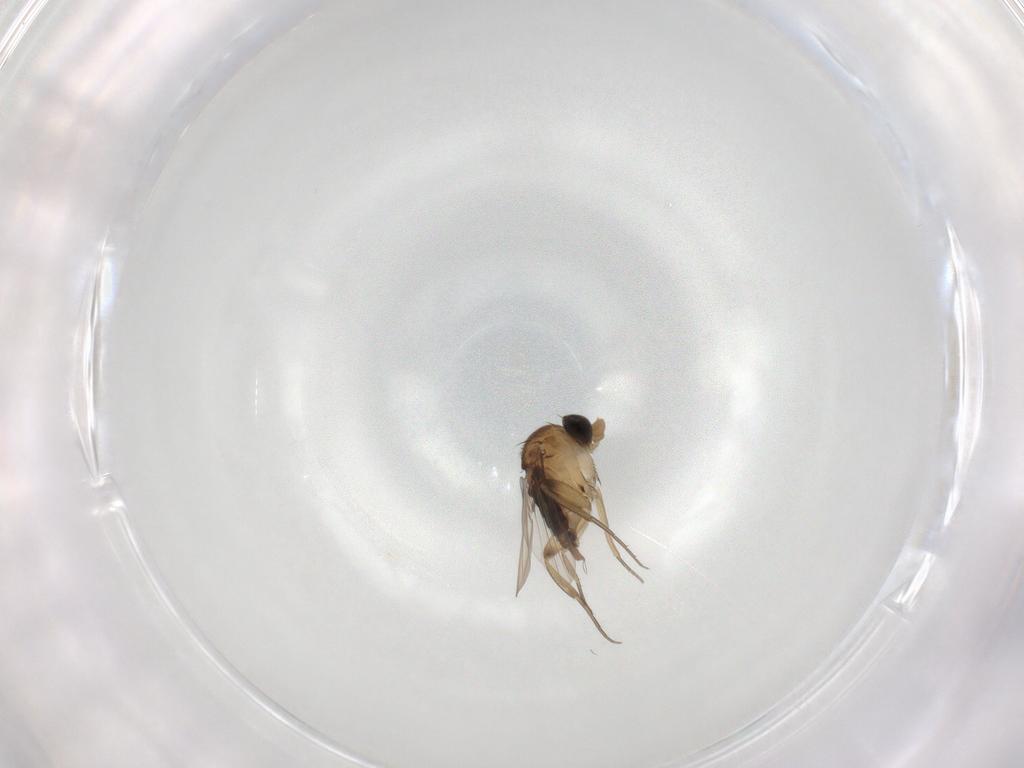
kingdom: Animalia
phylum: Arthropoda
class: Insecta
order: Diptera
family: Phoridae
